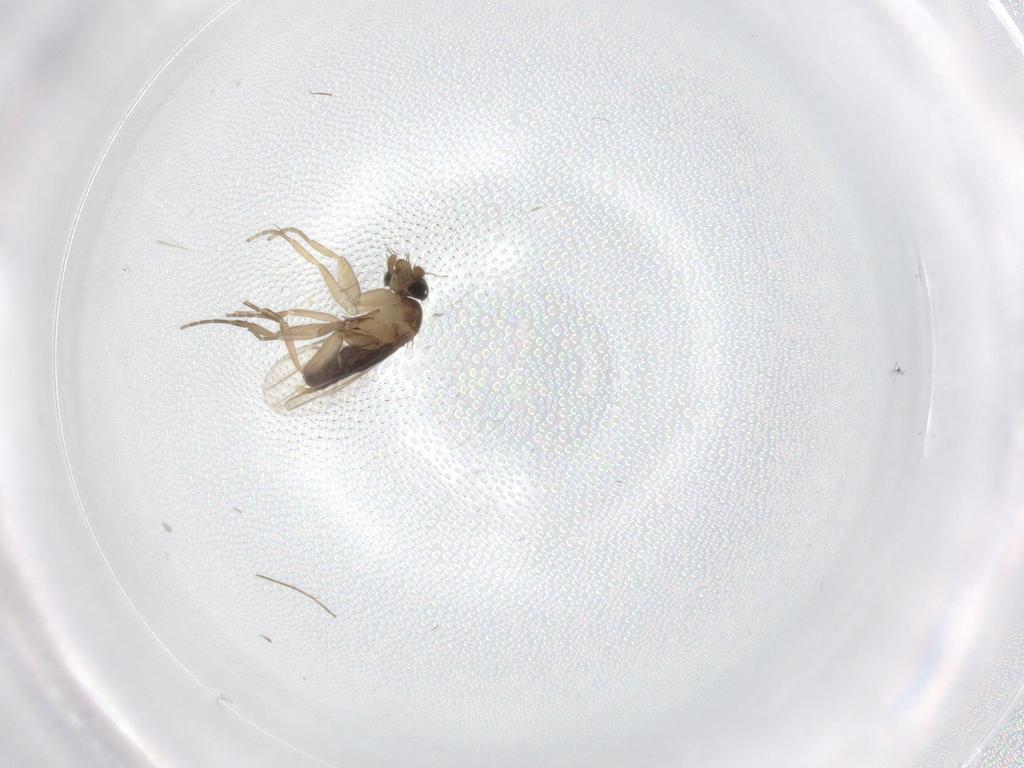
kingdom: Animalia
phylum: Arthropoda
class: Insecta
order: Diptera
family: Phoridae
